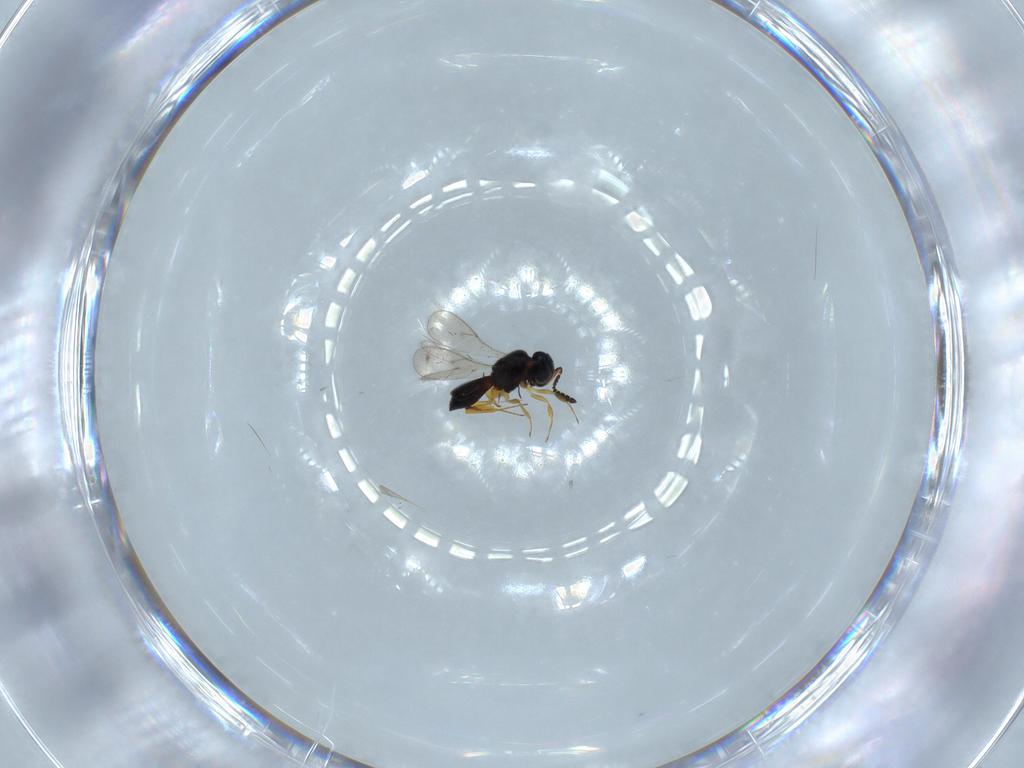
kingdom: Animalia
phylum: Arthropoda
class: Insecta
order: Hymenoptera
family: Scelionidae
